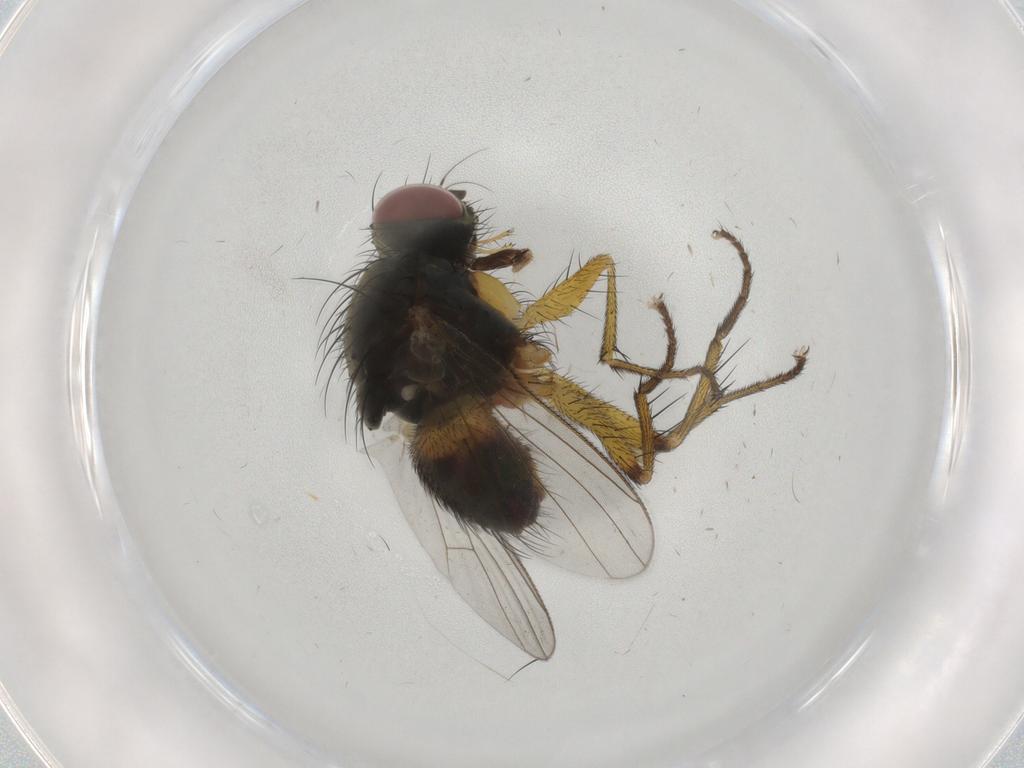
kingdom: Animalia
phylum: Arthropoda
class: Insecta
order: Diptera
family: Muscidae
